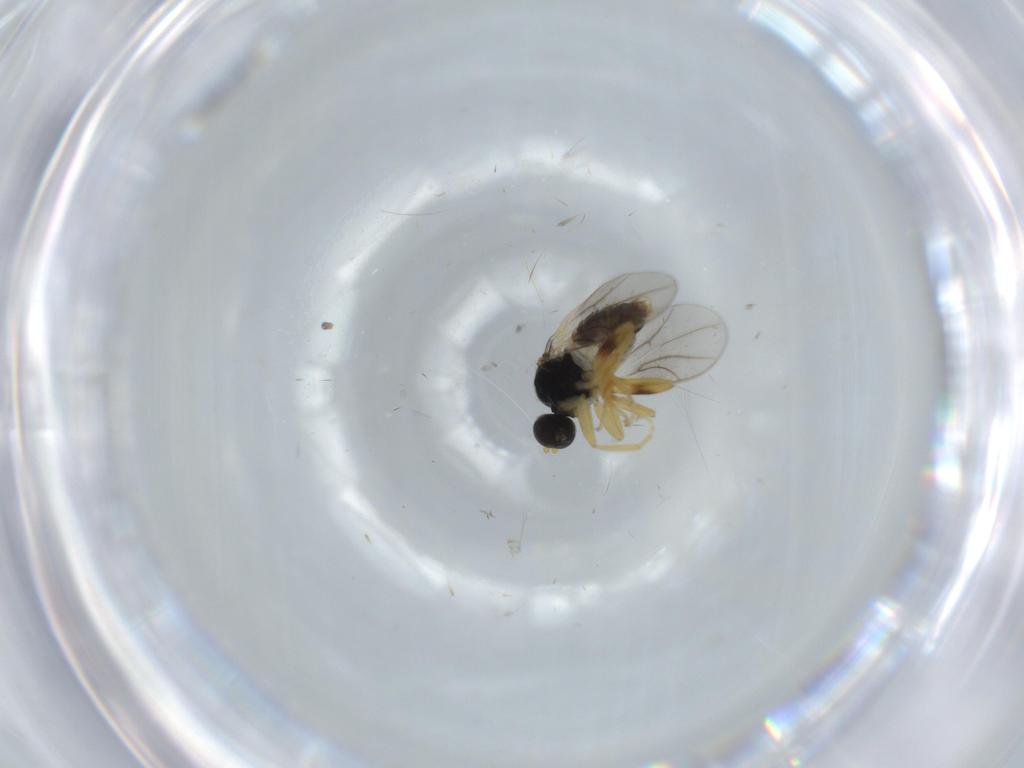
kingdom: Animalia
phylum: Arthropoda
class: Insecta
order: Diptera
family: Hybotidae
